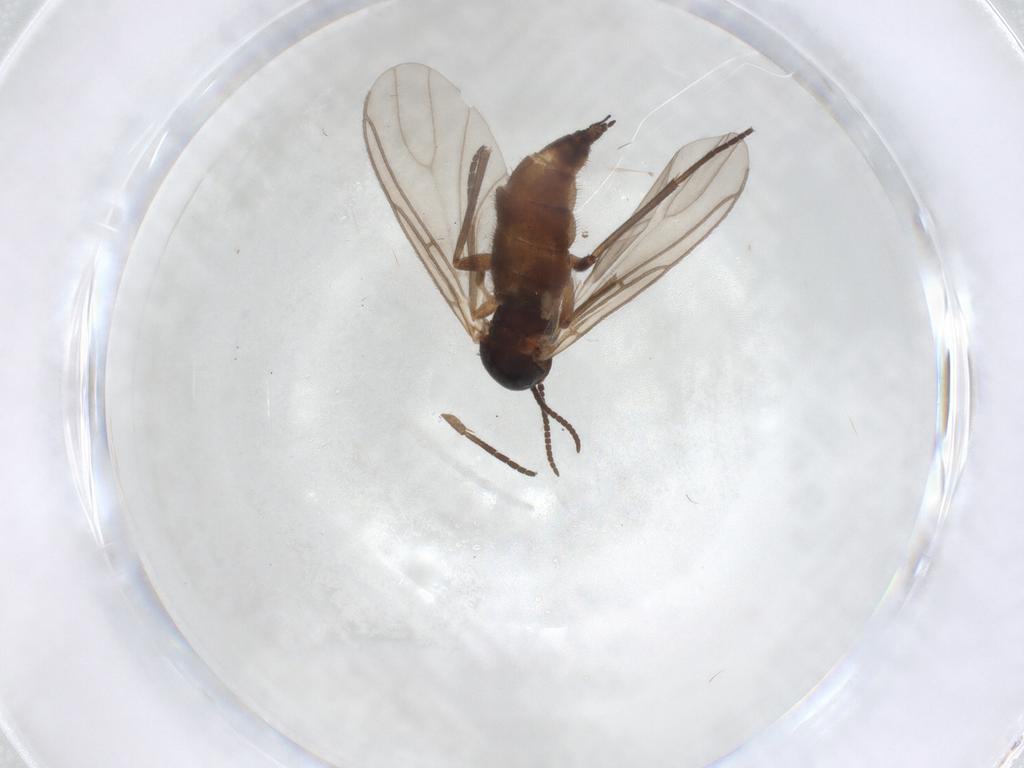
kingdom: Animalia
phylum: Arthropoda
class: Insecta
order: Diptera
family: Sciaridae
